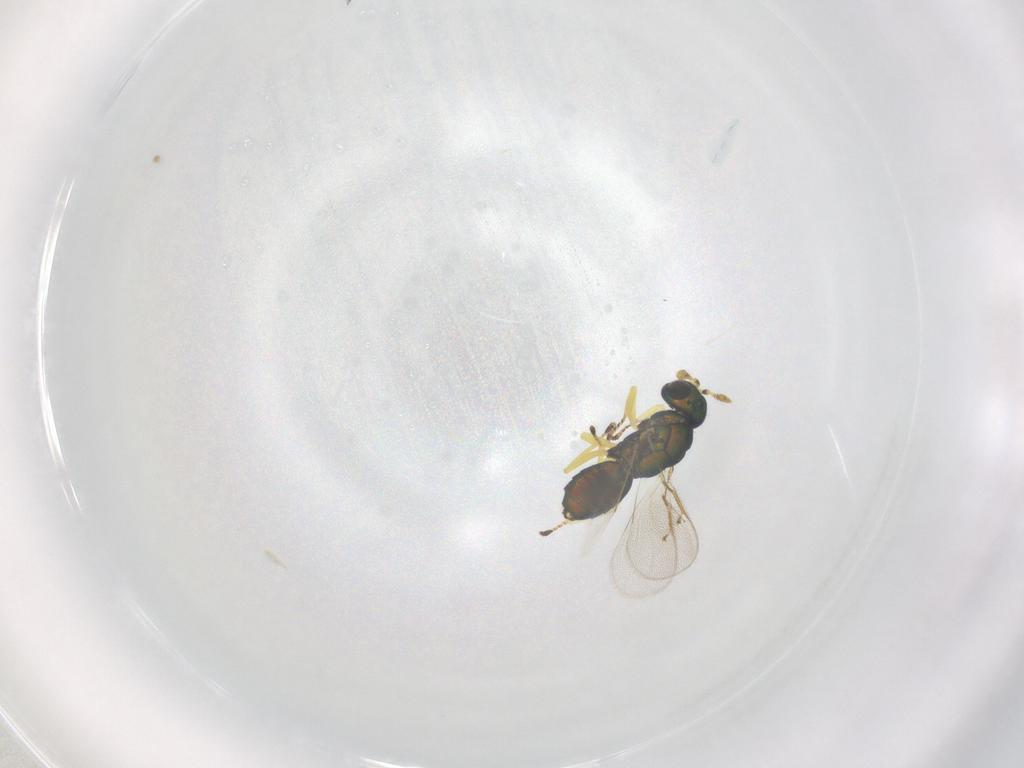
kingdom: Animalia
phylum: Arthropoda
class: Insecta
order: Hymenoptera
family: Eulophidae
